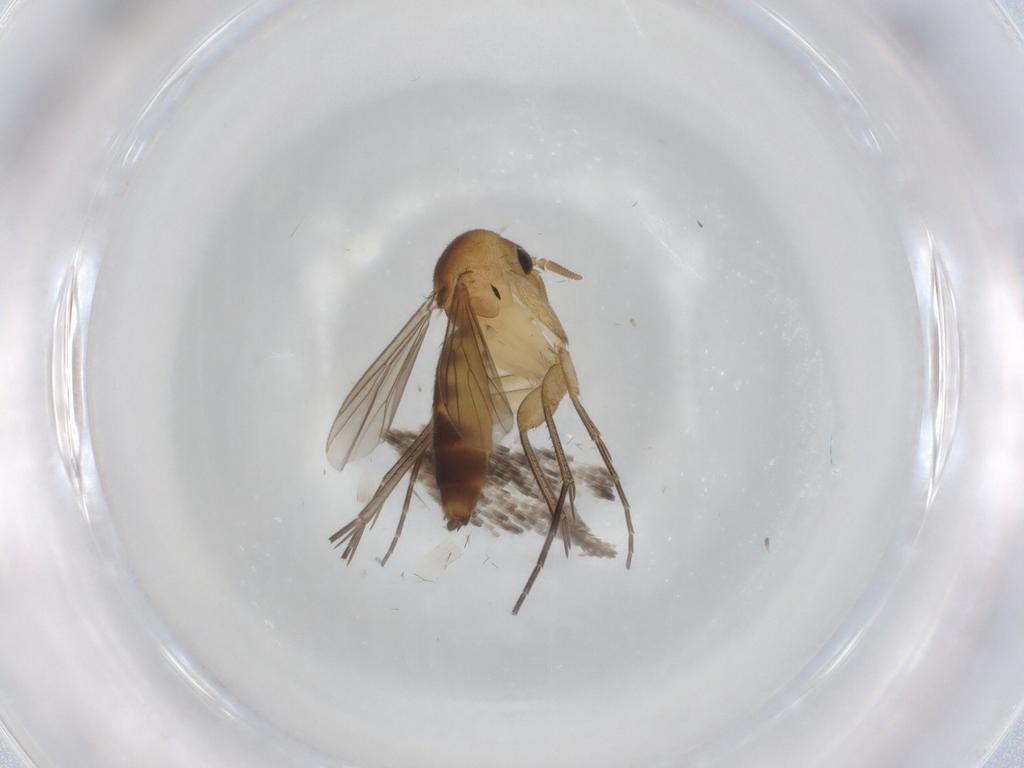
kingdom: Animalia
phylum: Arthropoda
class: Insecta
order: Diptera
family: Mycetophilidae
